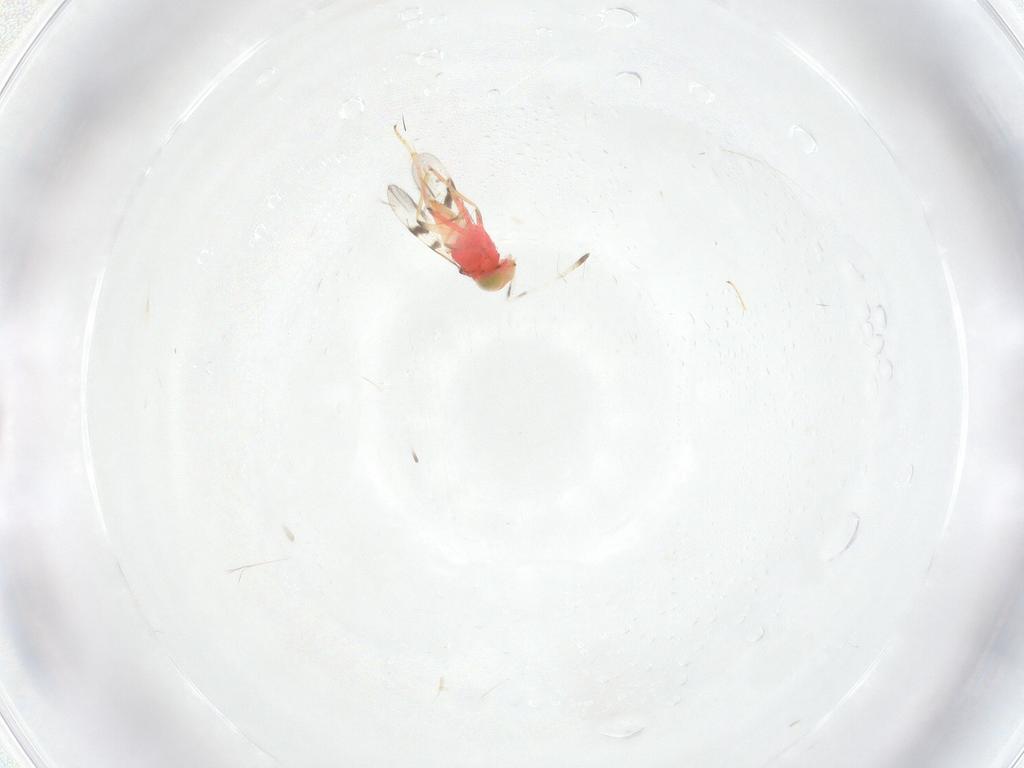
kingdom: Animalia
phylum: Arthropoda
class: Insecta
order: Hymenoptera
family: Encyrtidae
